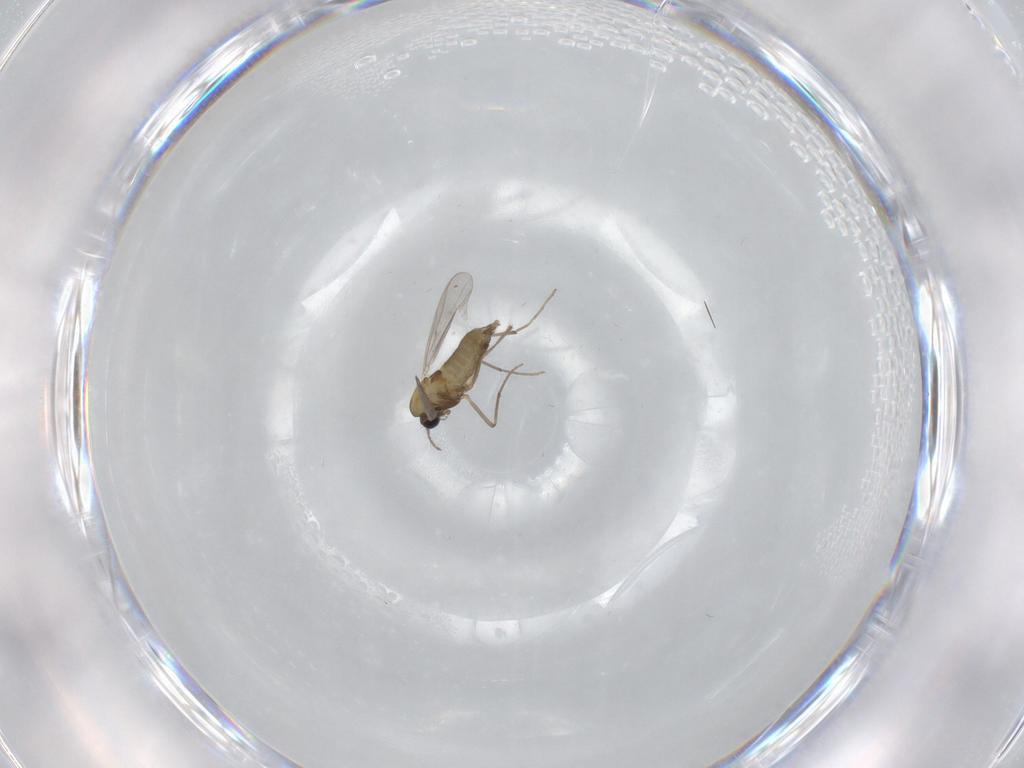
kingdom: Animalia
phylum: Arthropoda
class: Insecta
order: Diptera
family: Chironomidae
